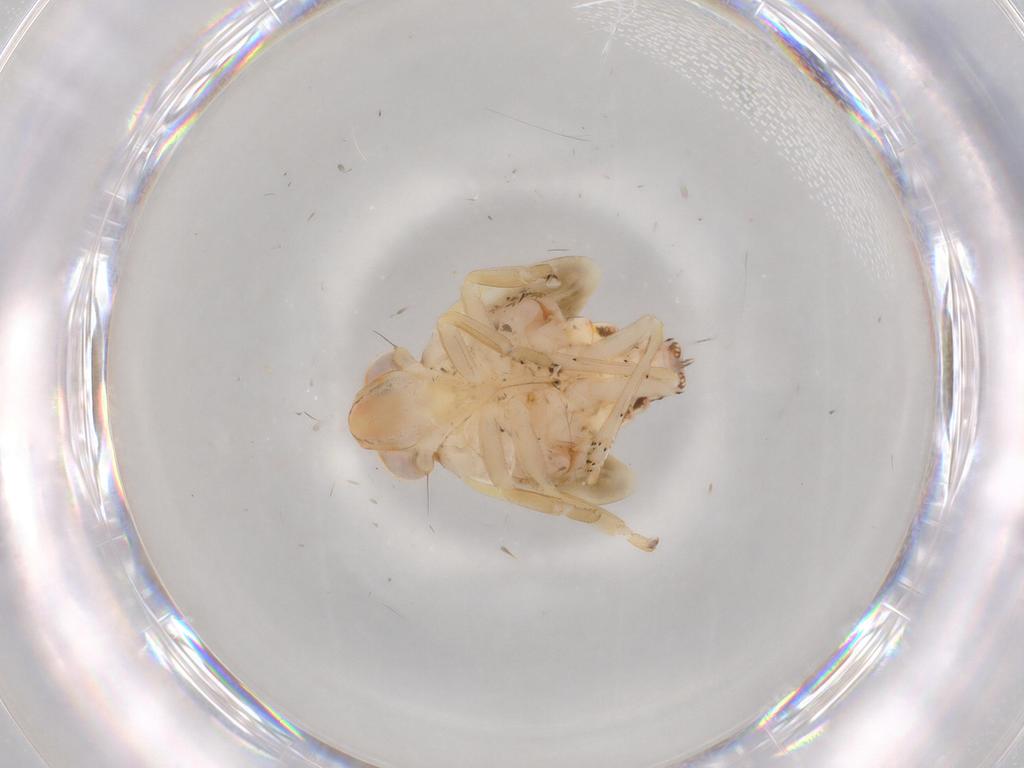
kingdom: Animalia
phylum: Arthropoda
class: Insecta
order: Hemiptera
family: Nogodinidae
